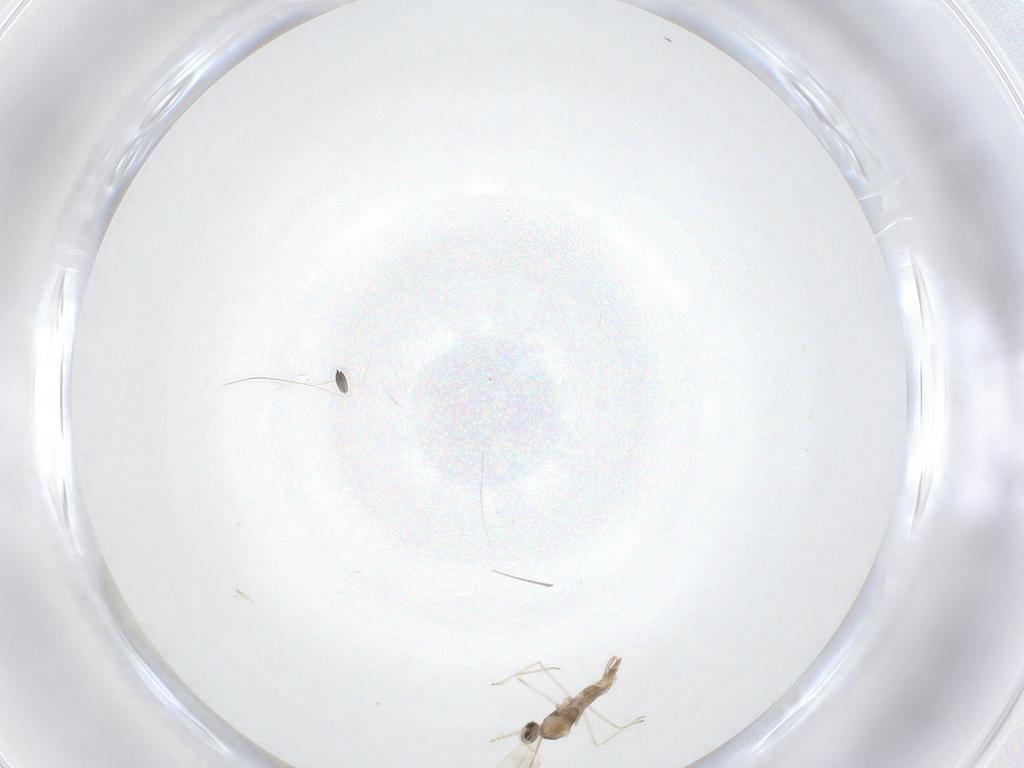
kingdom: Animalia
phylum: Arthropoda
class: Insecta
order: Diptera
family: Cecidomyiidae
